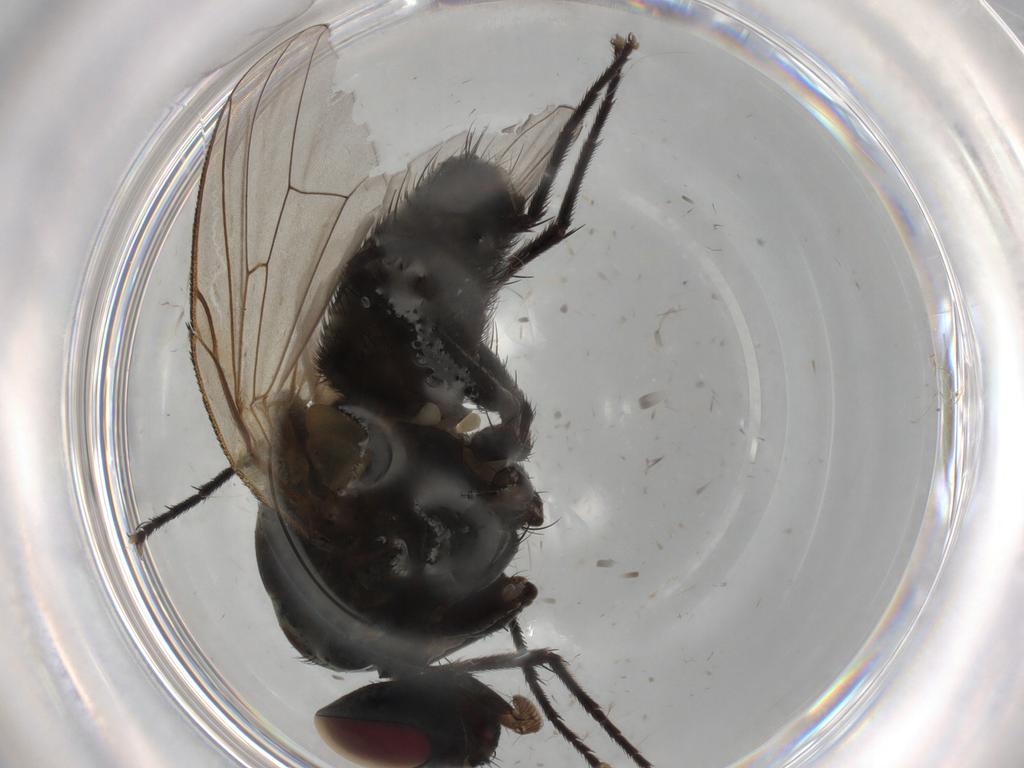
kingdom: Animalia
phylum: Arthropoda
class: Insecta
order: Diptera
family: Muscidae
